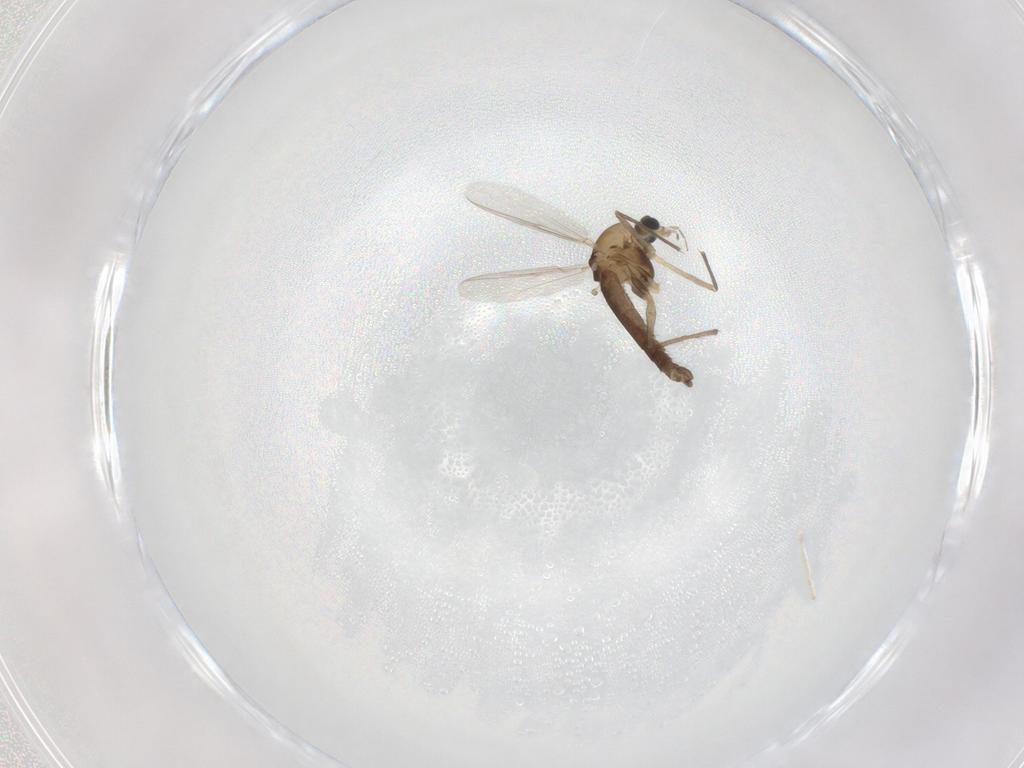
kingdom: Animalia
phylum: Arthropoda
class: Insecta
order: Diptera
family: Chironomidae
